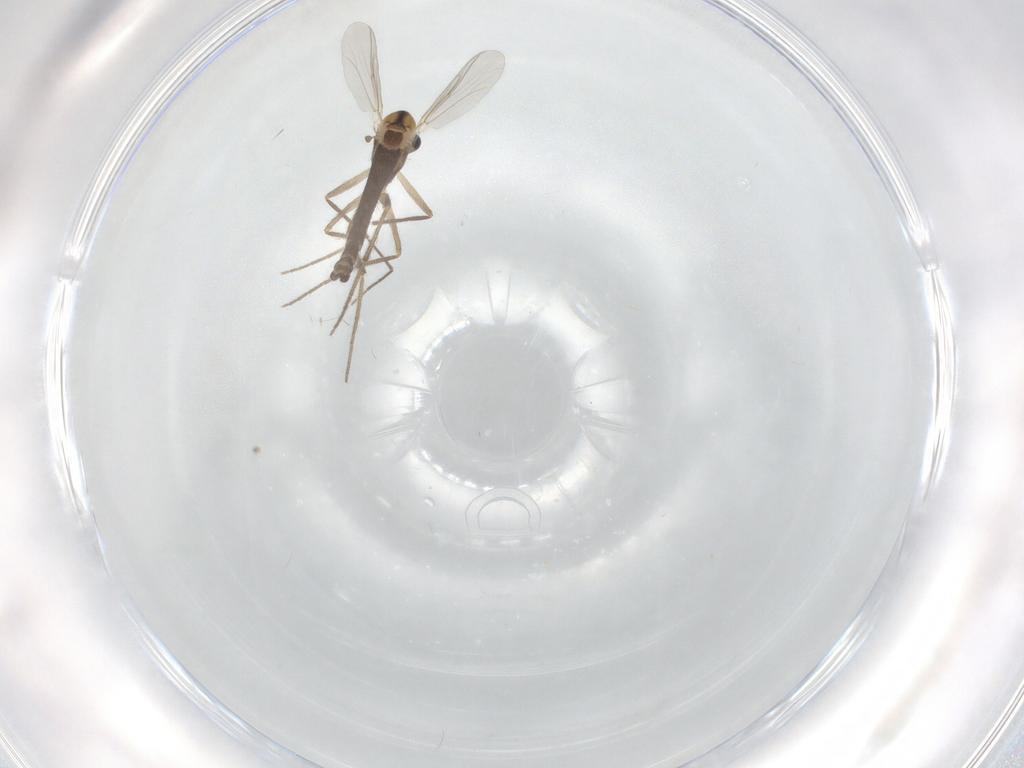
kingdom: Animalia
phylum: Arthropoda
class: Insecta
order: Diptera
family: Chironomidae
